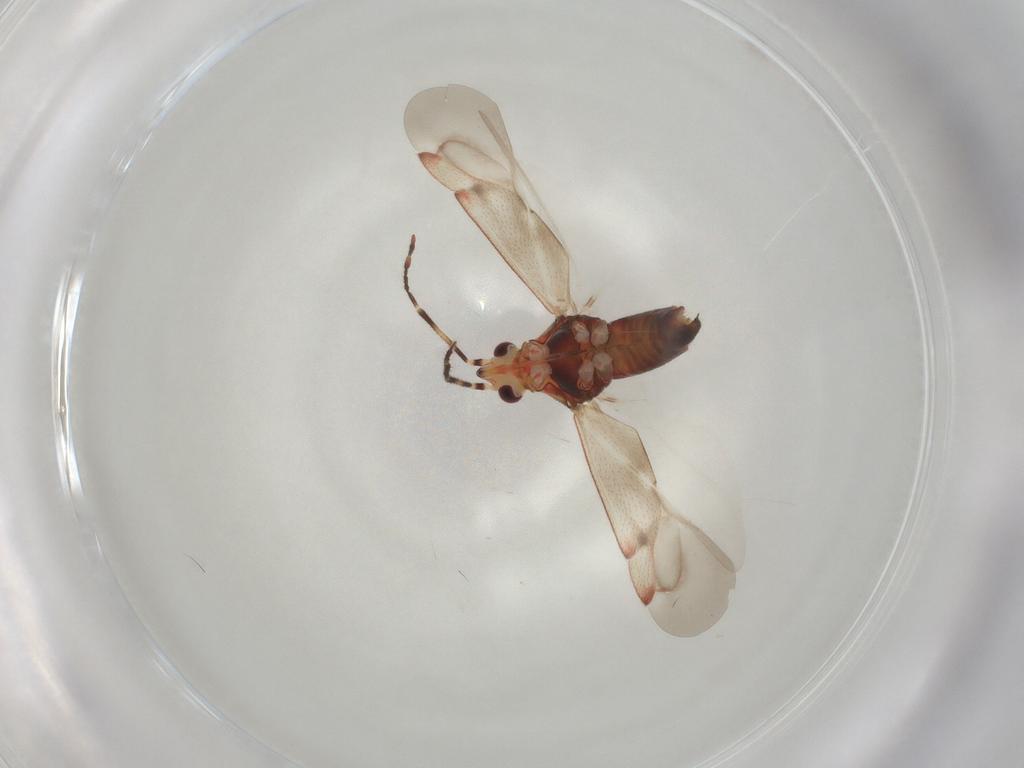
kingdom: Animalia
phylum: Arthropoda
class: Insecta
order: Hemiptera
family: Miridae
